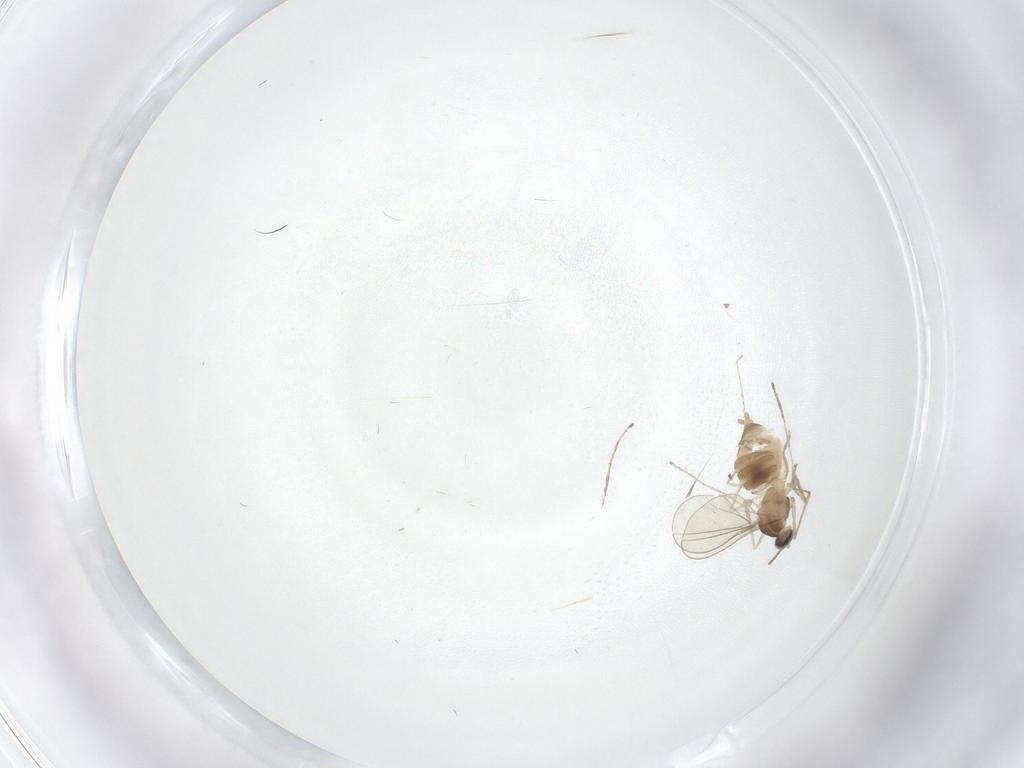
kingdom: Animalia
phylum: Arthropoda
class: Insecta
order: Diptera
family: Cecidomyiidae
